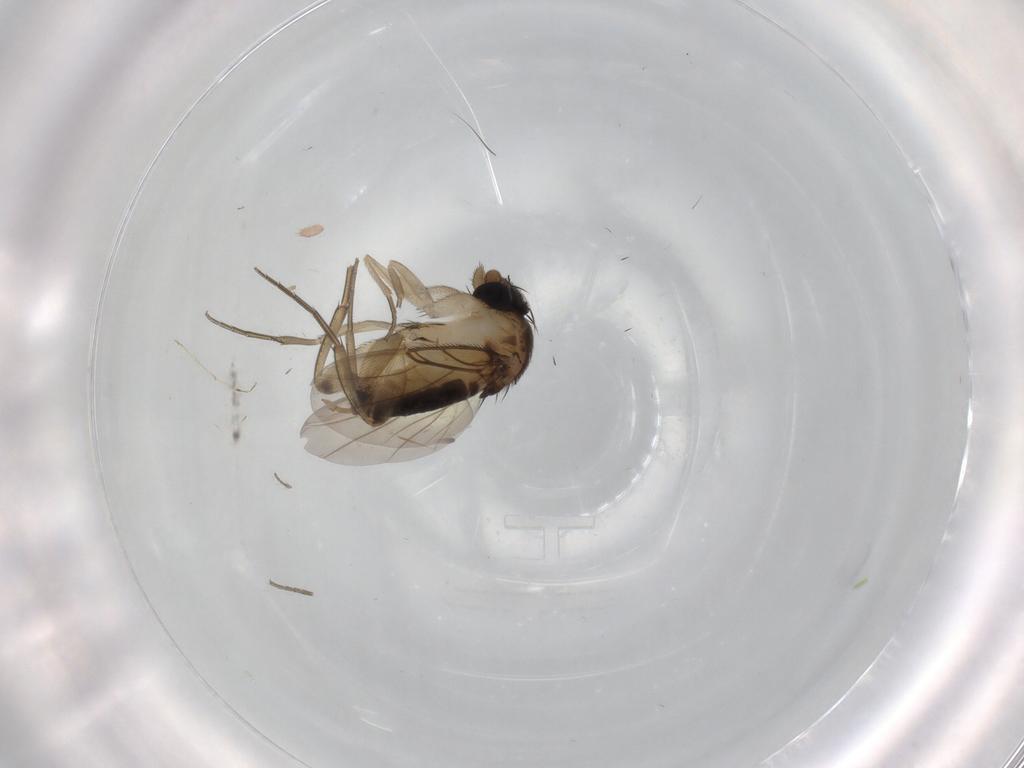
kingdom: Animalia
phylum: Arthropoda
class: Insecta
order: Diptera
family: Phoridae
